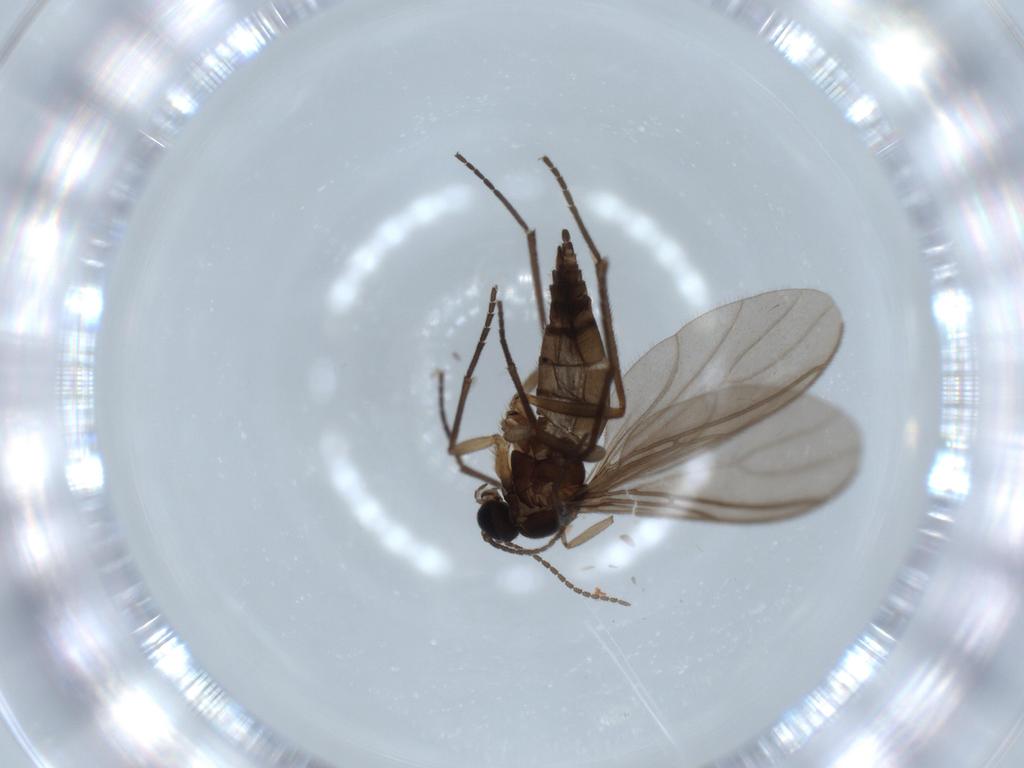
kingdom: Animalia
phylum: Arthropoda
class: Insecta
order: Diptera
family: Sciaridae
